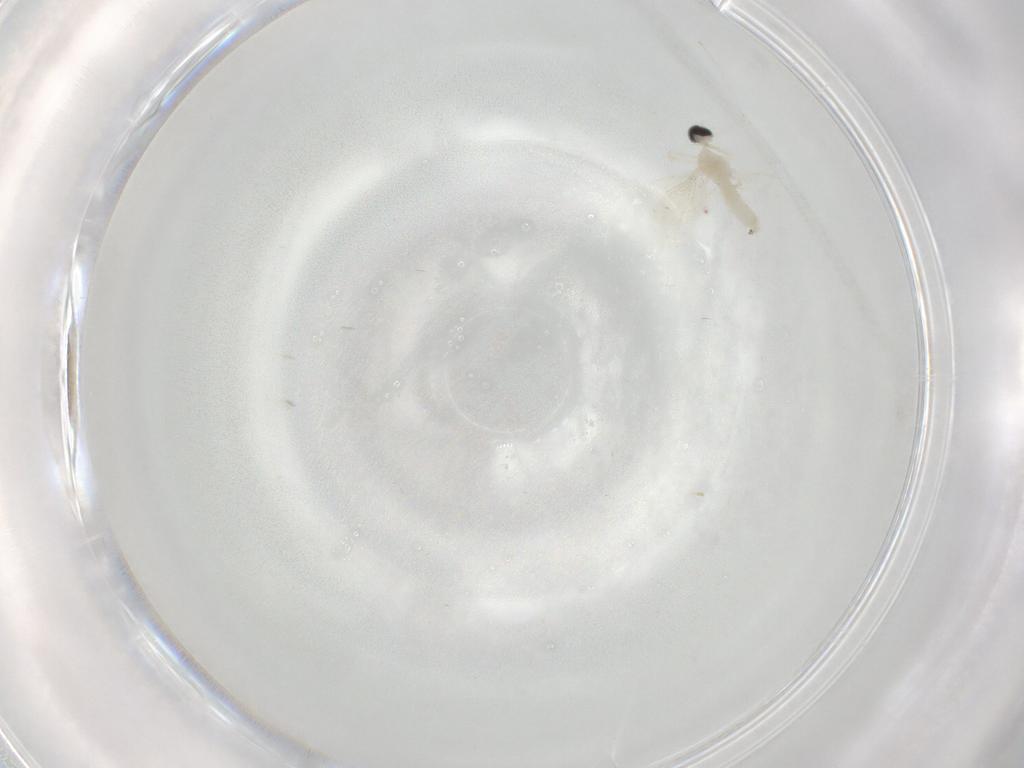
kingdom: Animalia
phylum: Arthropoda
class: Insecta
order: Diptera
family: Cecidomyiidae
